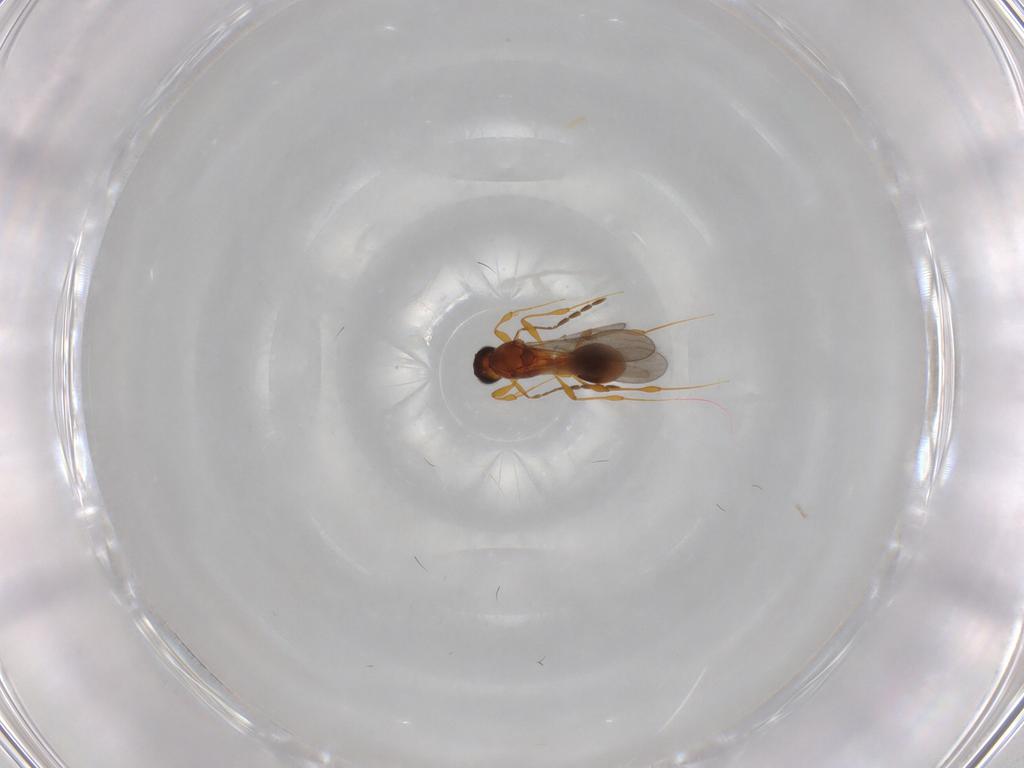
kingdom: Animalia
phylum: Arthropoda
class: Insecta
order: Hymenoptera
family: Platygastridae
